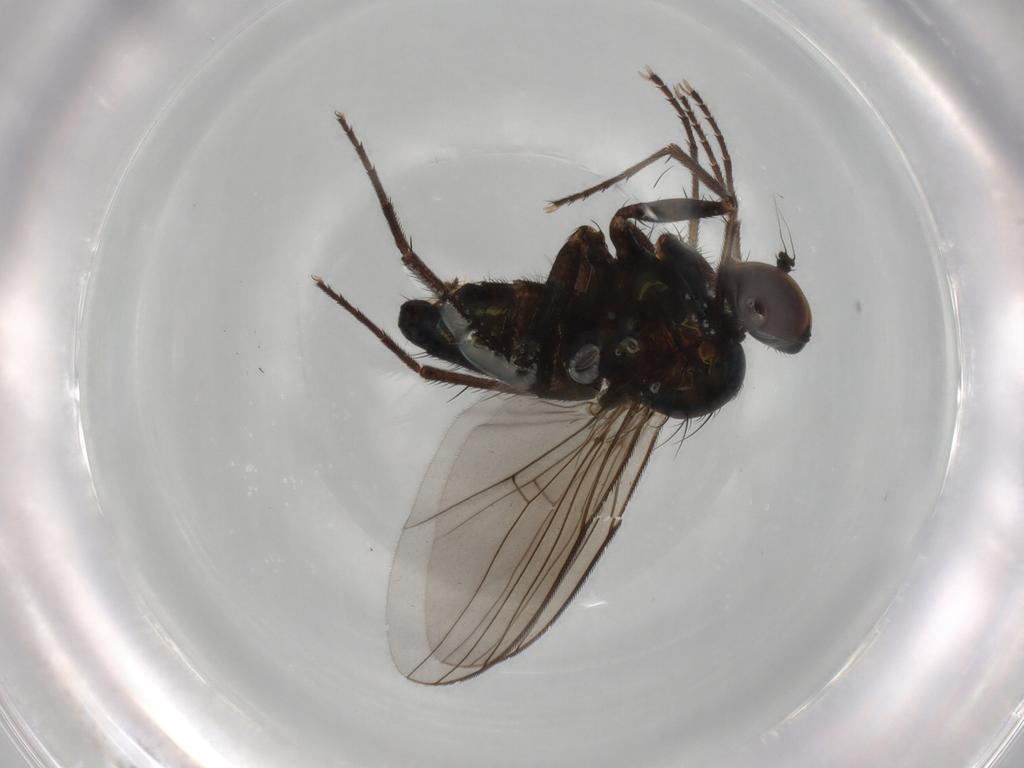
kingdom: Animalia
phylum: Arthropoda
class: Insecta
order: Diptera
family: Dolichopodidae
